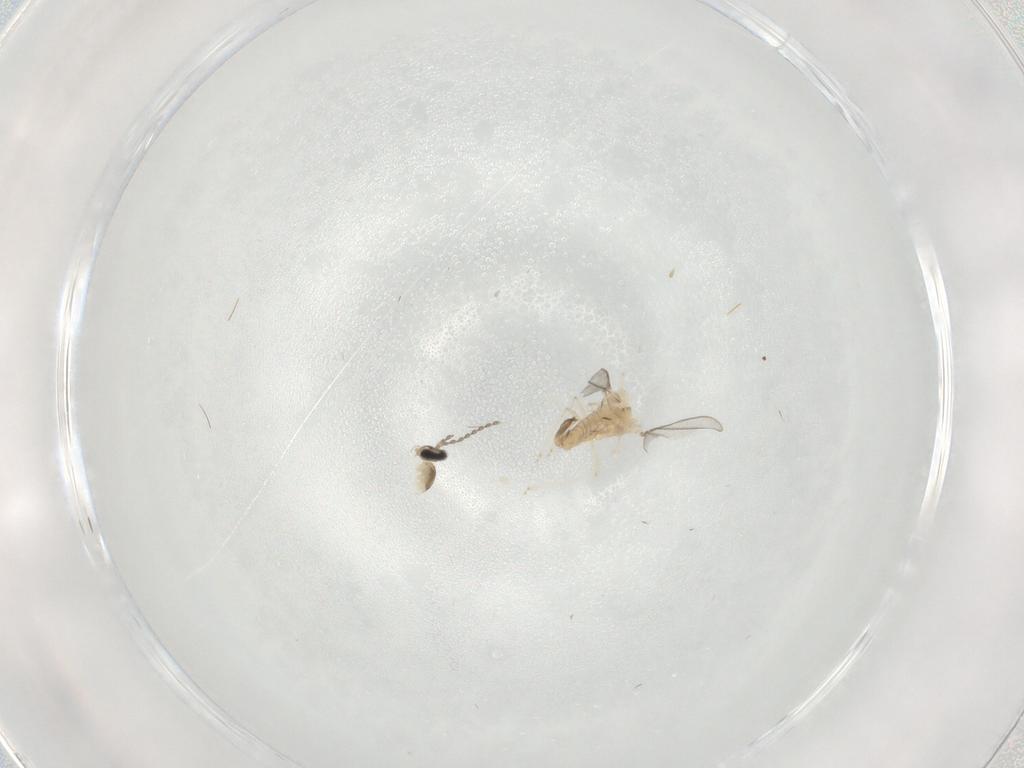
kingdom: Animalia
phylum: Arthropoda
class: Insecta
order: Diptera
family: Cecidomyiidae
